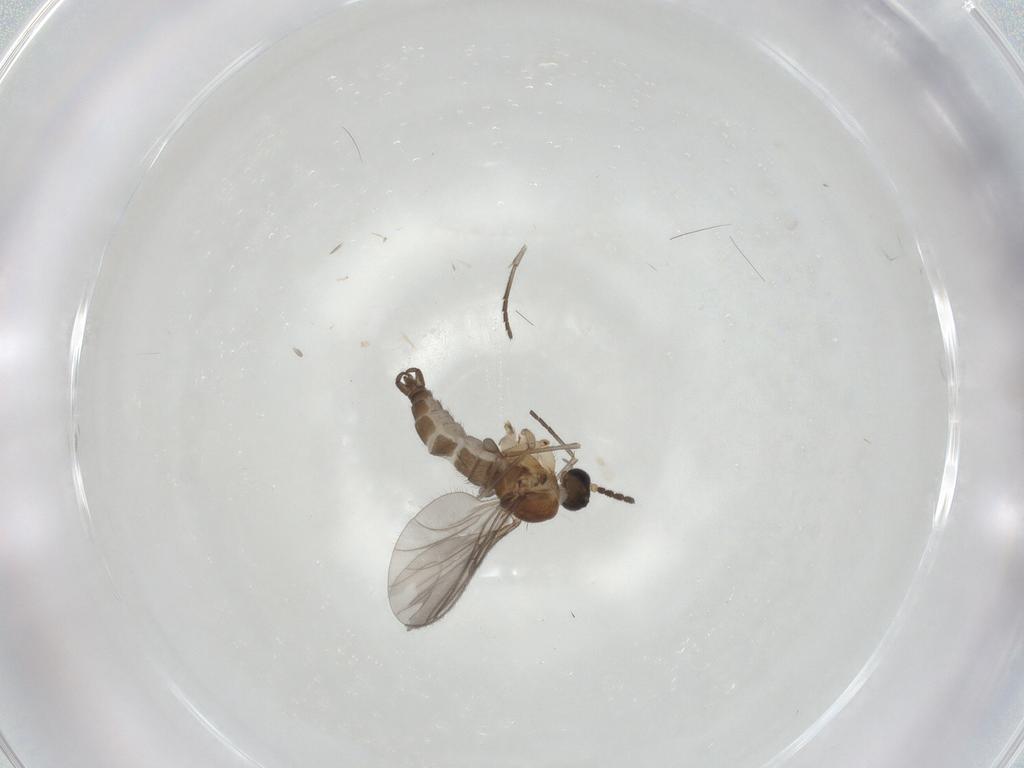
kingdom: Animalia
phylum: Arthropoda
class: Insecta
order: Diptera
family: Sciaridae
